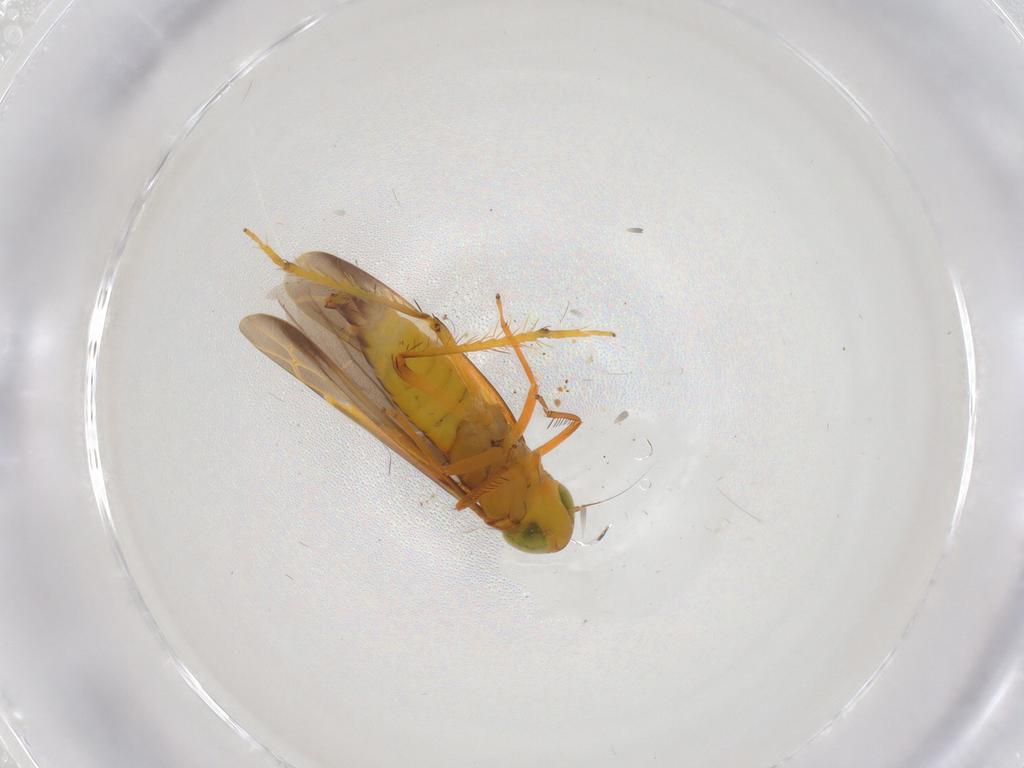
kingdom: Animalia
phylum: Arthropoda
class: Insecta
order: Hemiptera
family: Cicadellidae
